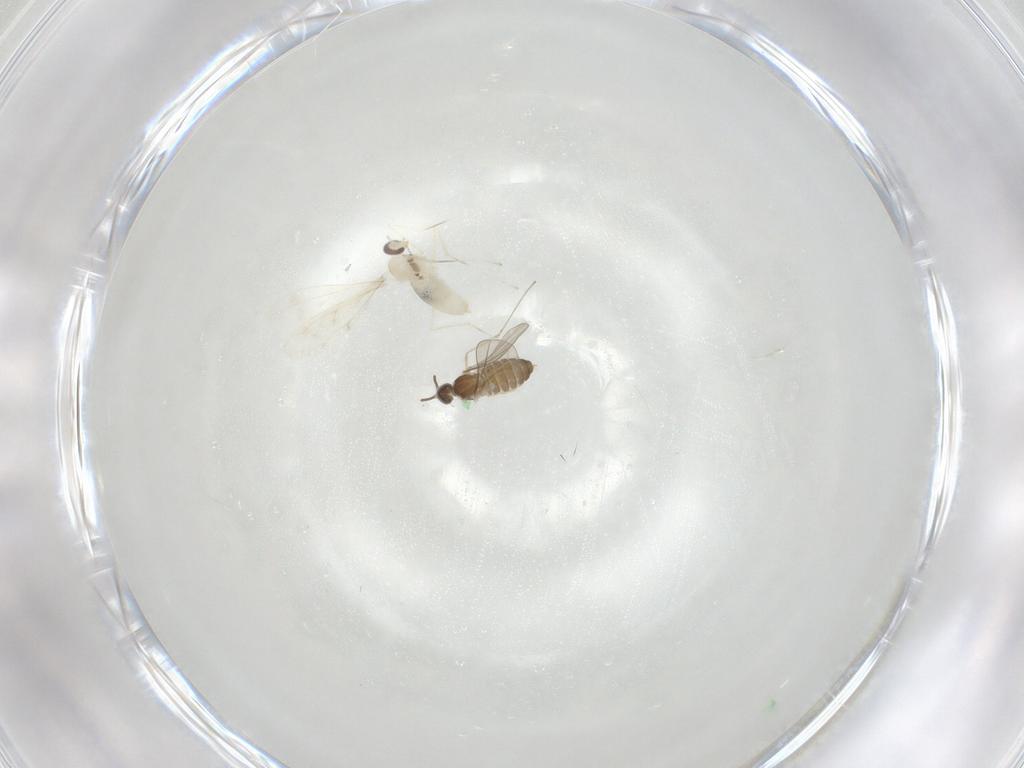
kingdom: Animalia
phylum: Arthropoda
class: Insecta
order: Diptera
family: Cecidomyiidae
